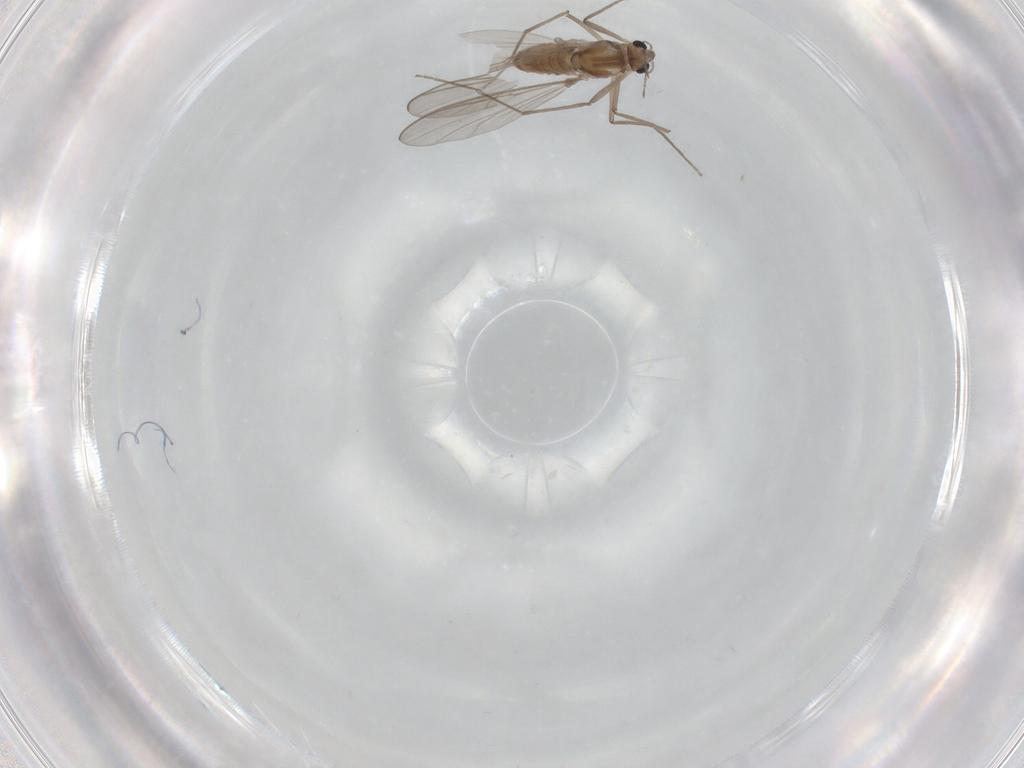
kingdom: Animalia
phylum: Arthropoda
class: Insecta
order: Diptera
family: Chironomidae
